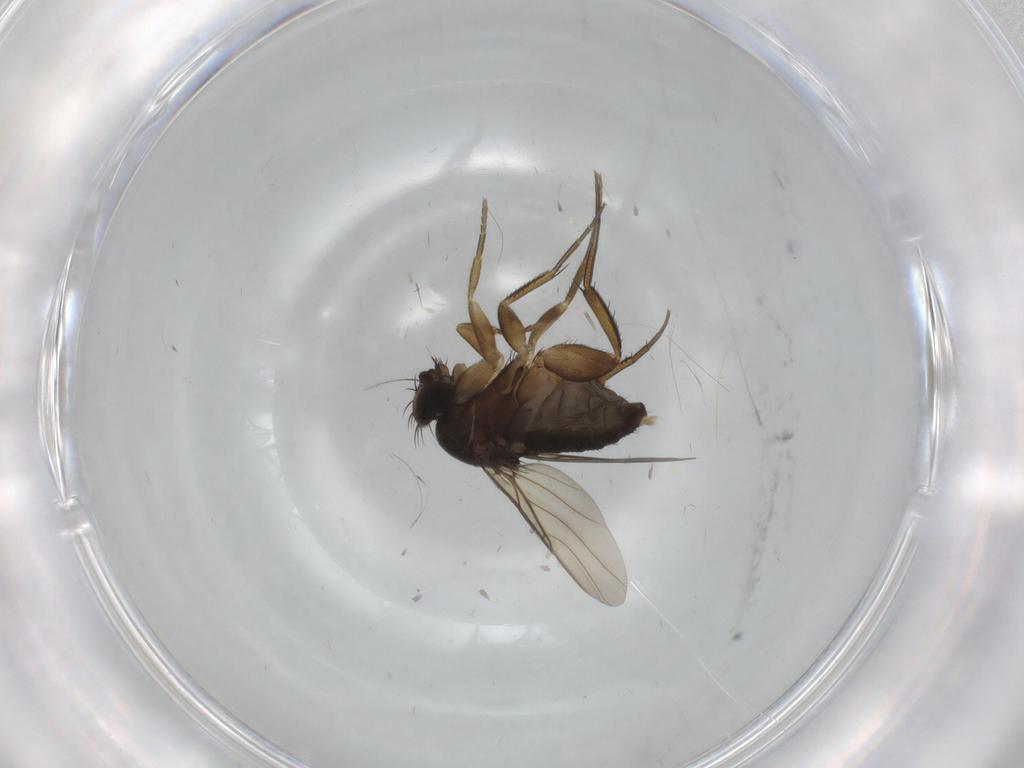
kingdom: Animalia
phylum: Arthropoda
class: Insecta
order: Diptera
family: Phoridae
